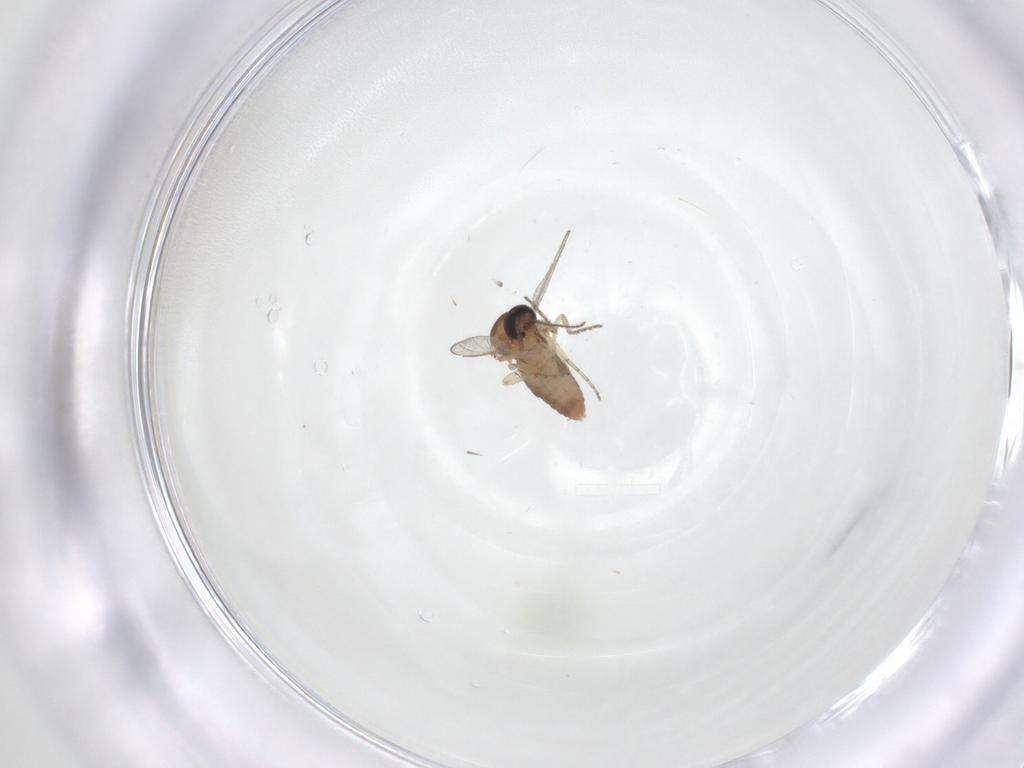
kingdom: Animalia
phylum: Arthropoda
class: Insecta
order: Diptera
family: Ceratopogonidae
